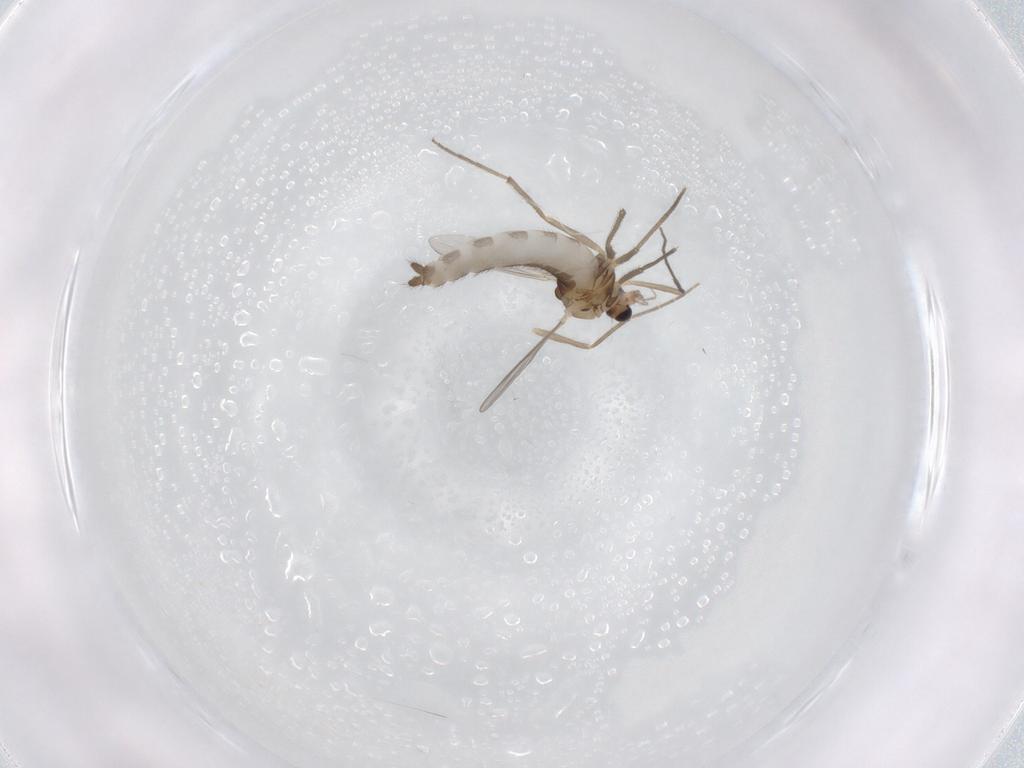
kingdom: Animalia
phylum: Arthropoda
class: Insecta
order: Diptera
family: Chironomidae
